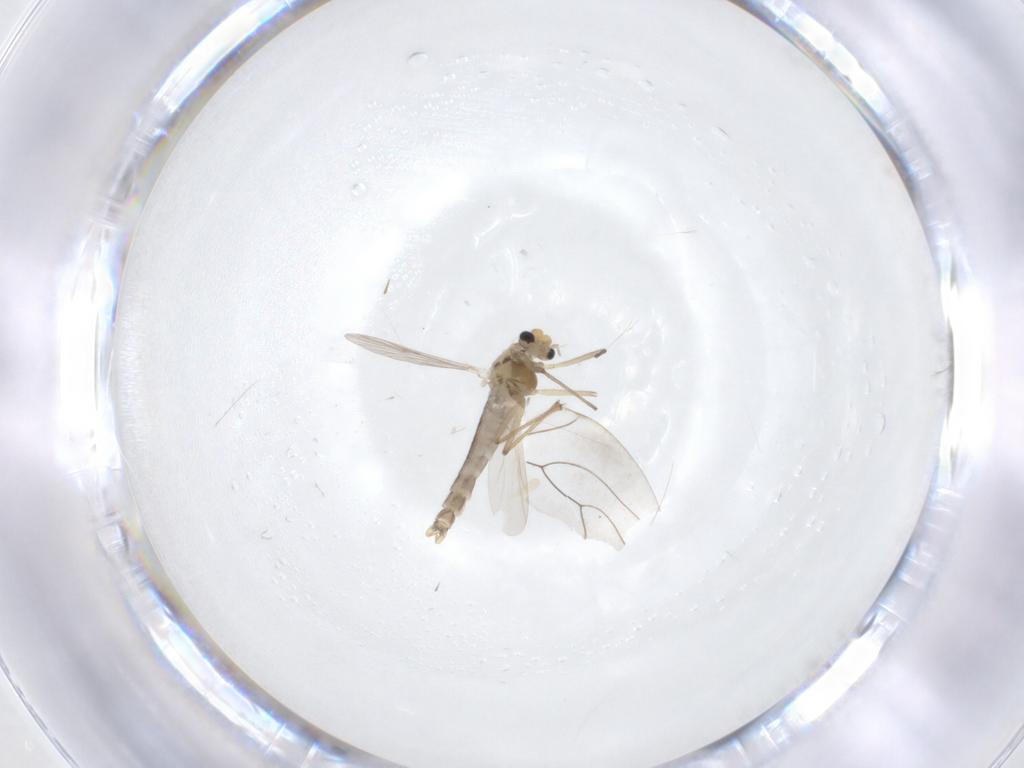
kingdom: Animalia
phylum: Arthropoda
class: Insecta
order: Diptera
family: Chironomidae
